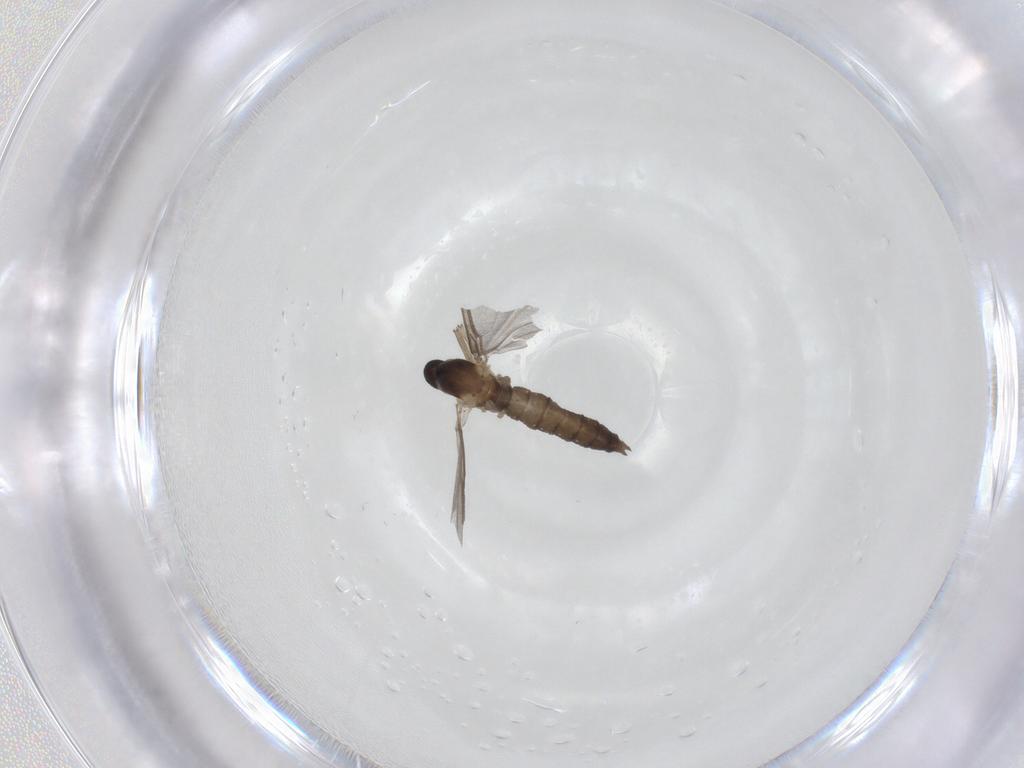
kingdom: Animalia
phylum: Arthropoda
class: Insecta
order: Diptera
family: Cecidomyiidae
